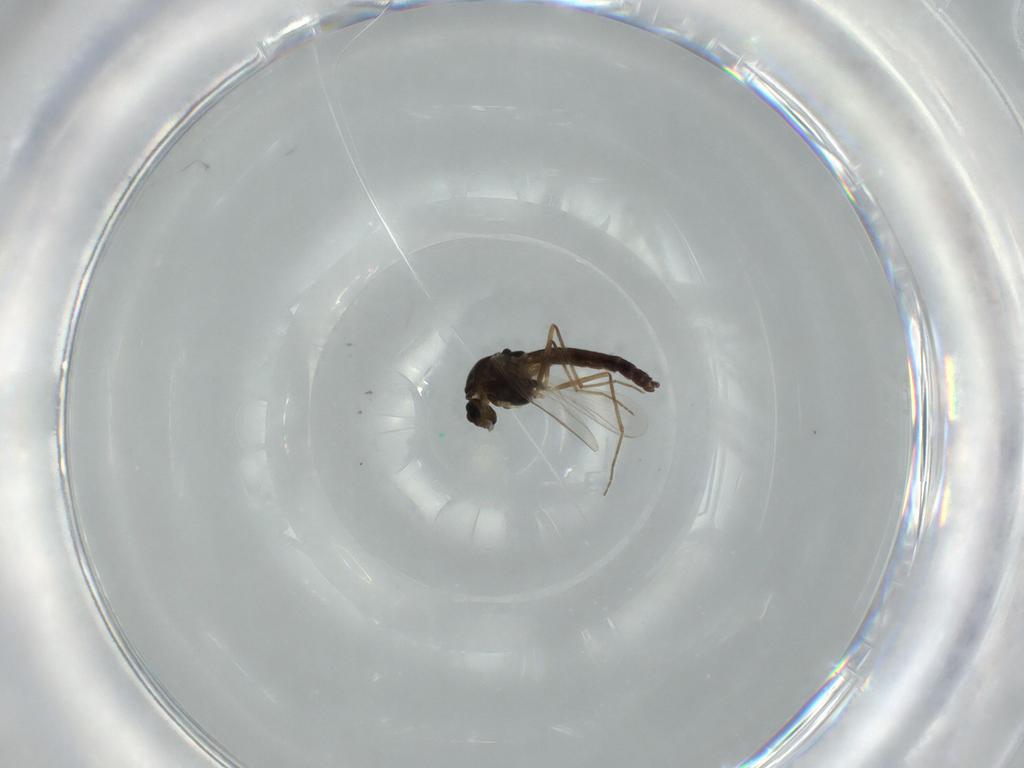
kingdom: Animalia
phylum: Arthropoda
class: Insecta
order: Diptera
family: Chironomidae
